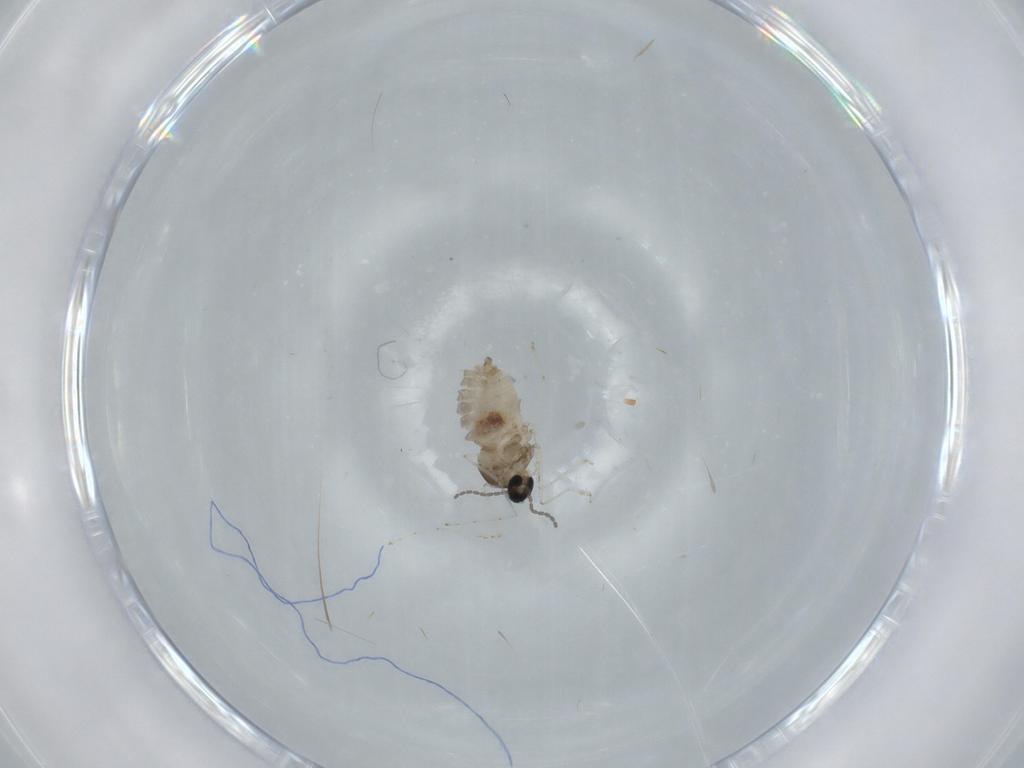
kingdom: Animalia
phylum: Arthropoda
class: Insecta
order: Diptera
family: Cecidomyiidae
